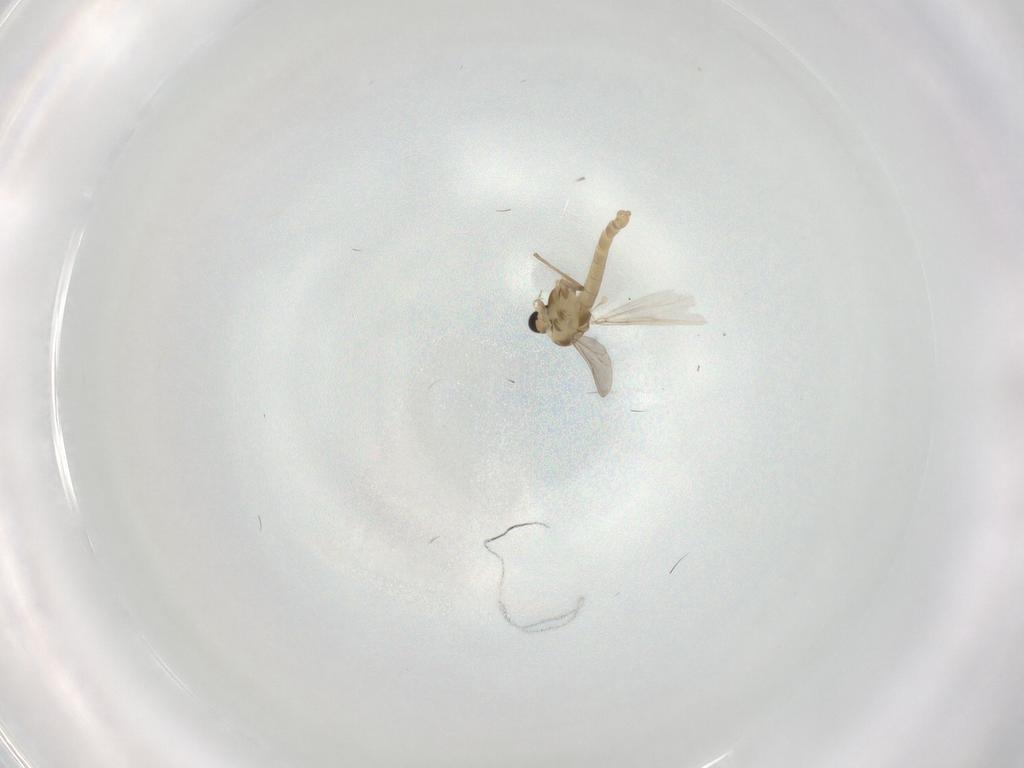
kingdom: Animalia
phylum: Arthropoda
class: Insecta
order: Diptera
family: Chironomidae
